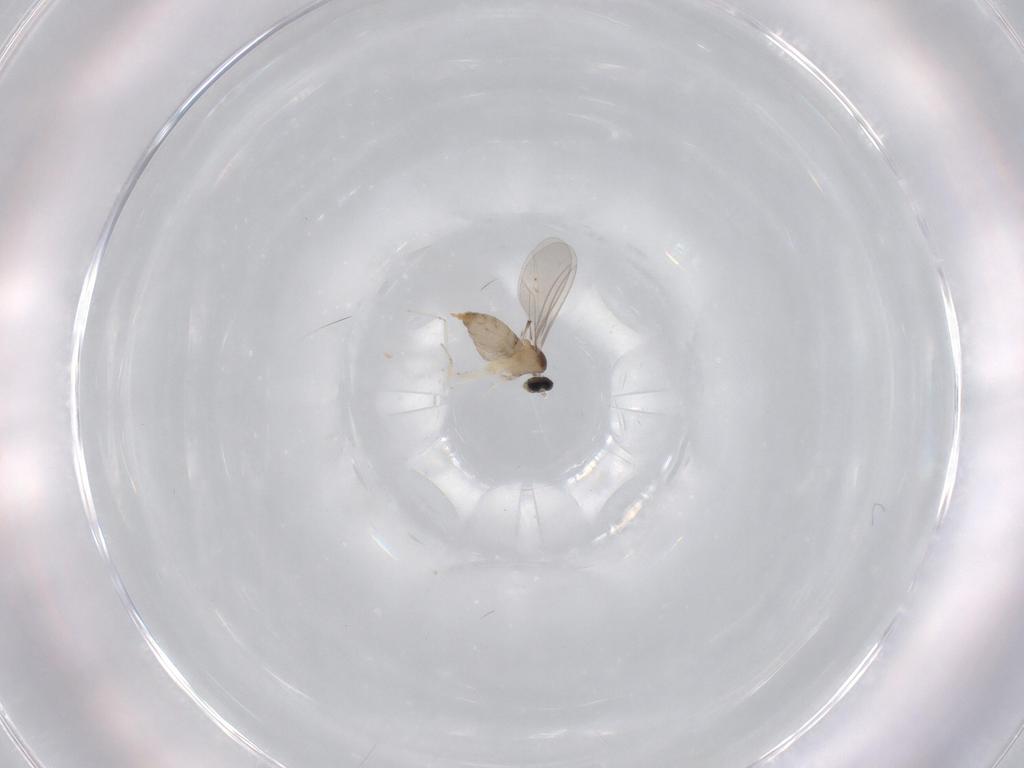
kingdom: Animalia
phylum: Arthropoda
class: Insecta
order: Diptera
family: Cecidomyiidae
